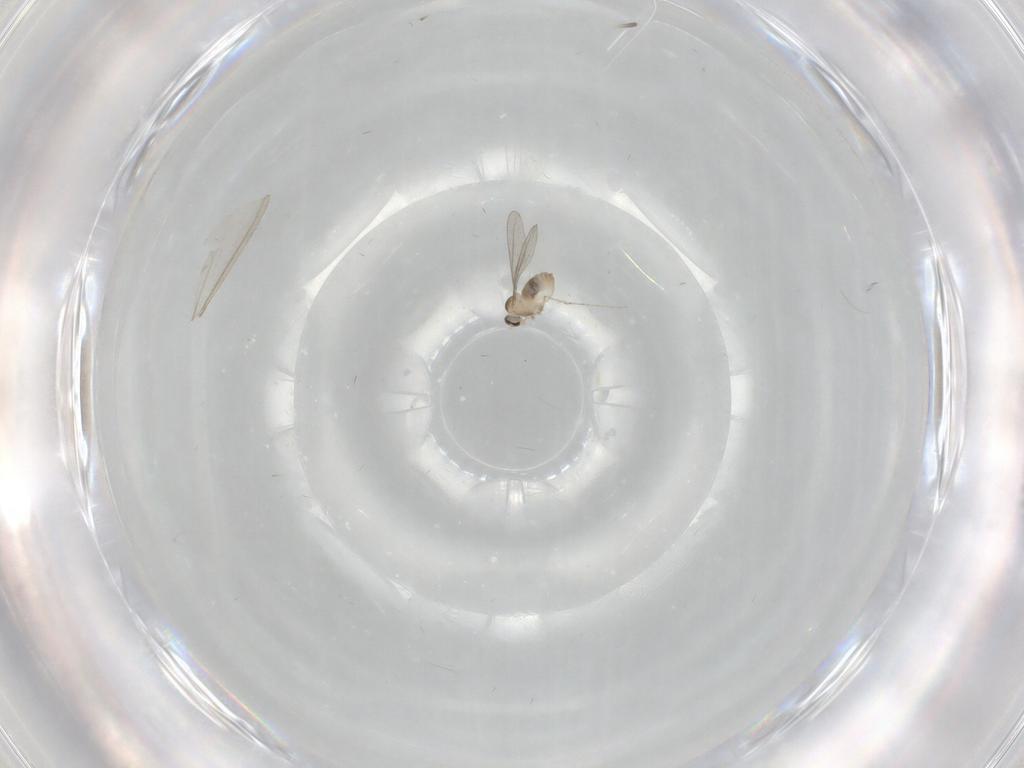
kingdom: Animalia
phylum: Arthropoda
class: Insecta
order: Diptera
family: Cecidomyiidae
